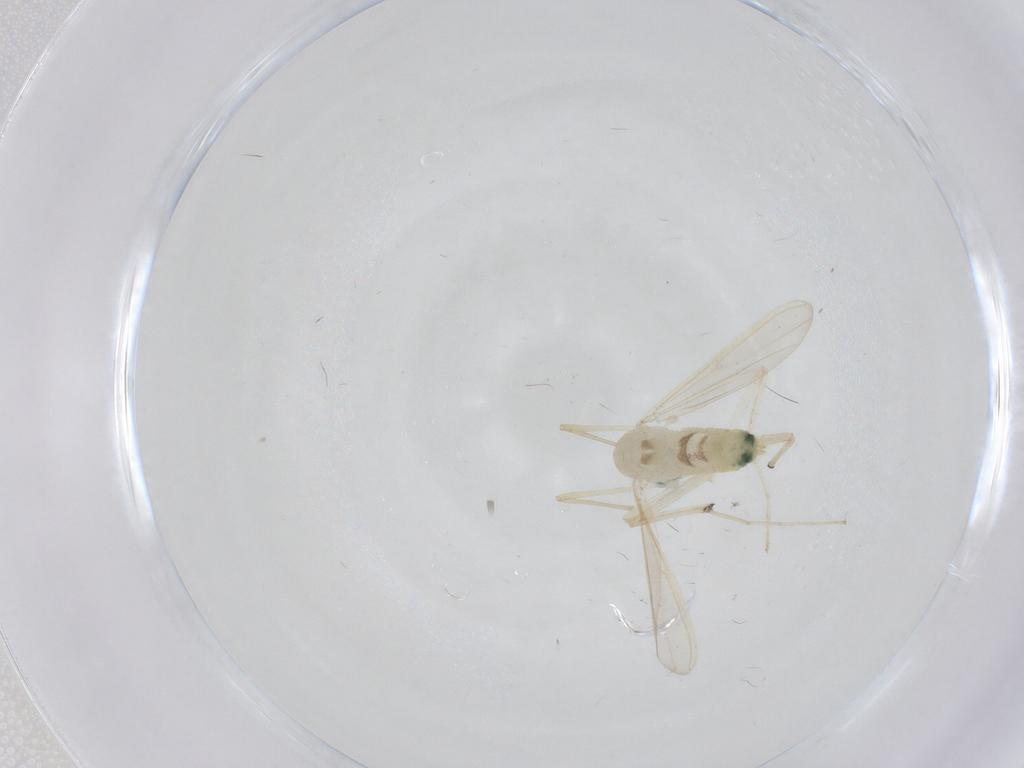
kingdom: Animalia
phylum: Arthropoda
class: Insecta
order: Diptera
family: Chironomidae
